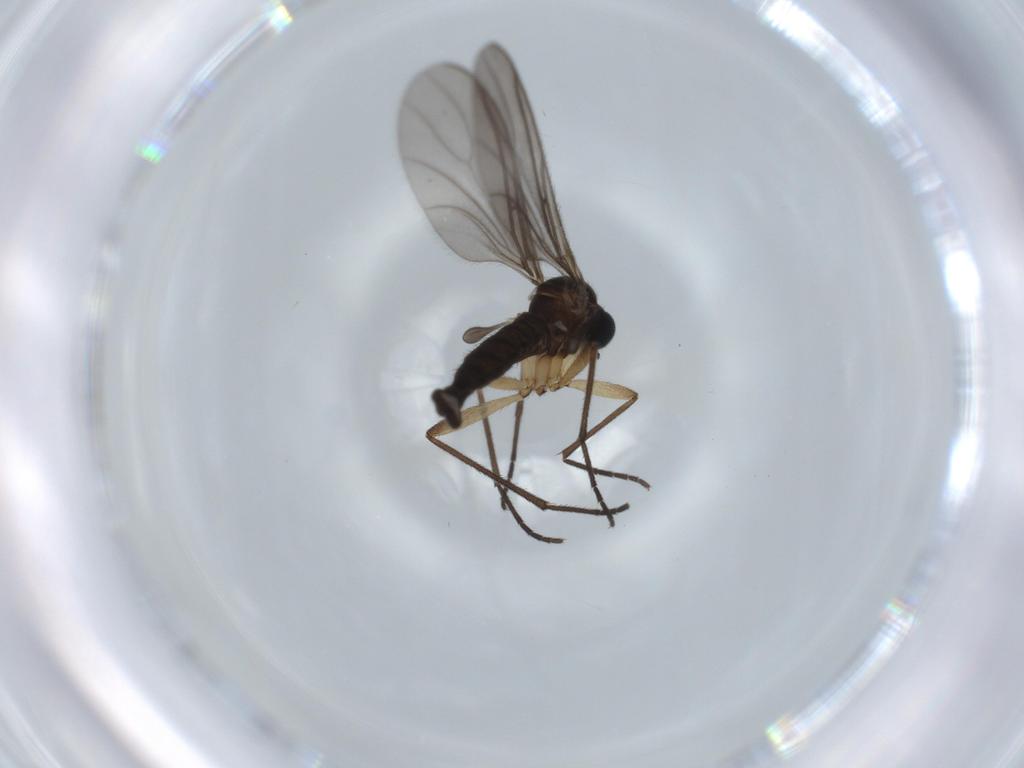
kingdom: Animalia
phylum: Arthropoda
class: Insecta
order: Diptera
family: Sciaridae
